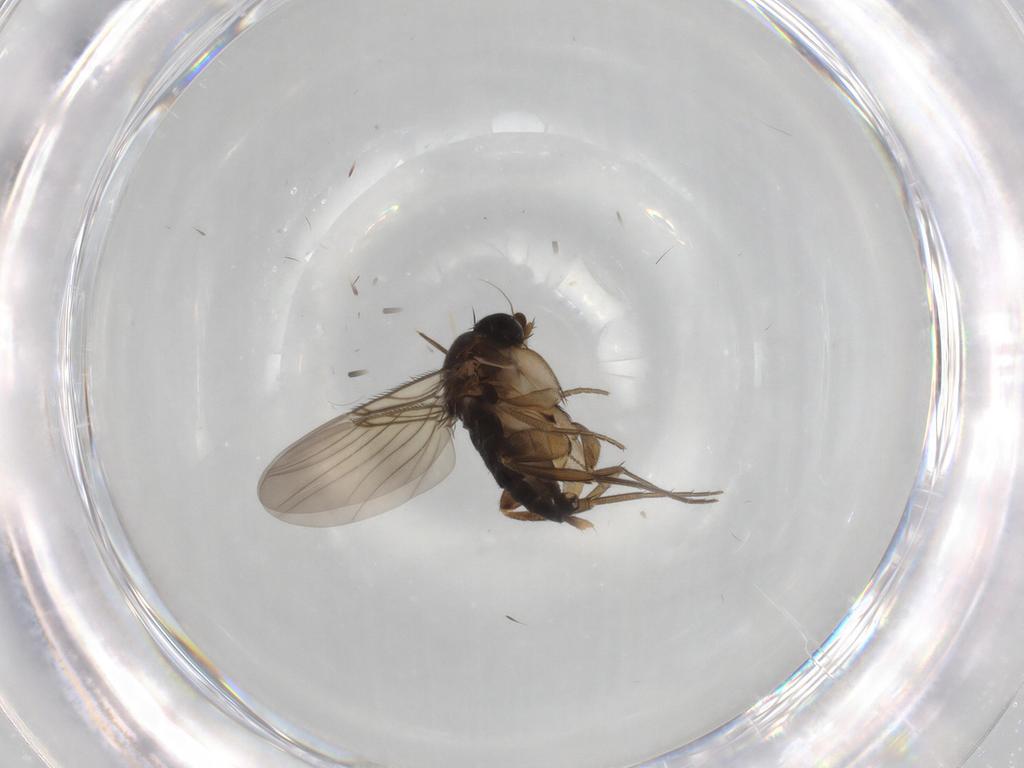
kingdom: Animalia
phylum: Arthropoda
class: Insecta
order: Diptera
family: Phoridae
